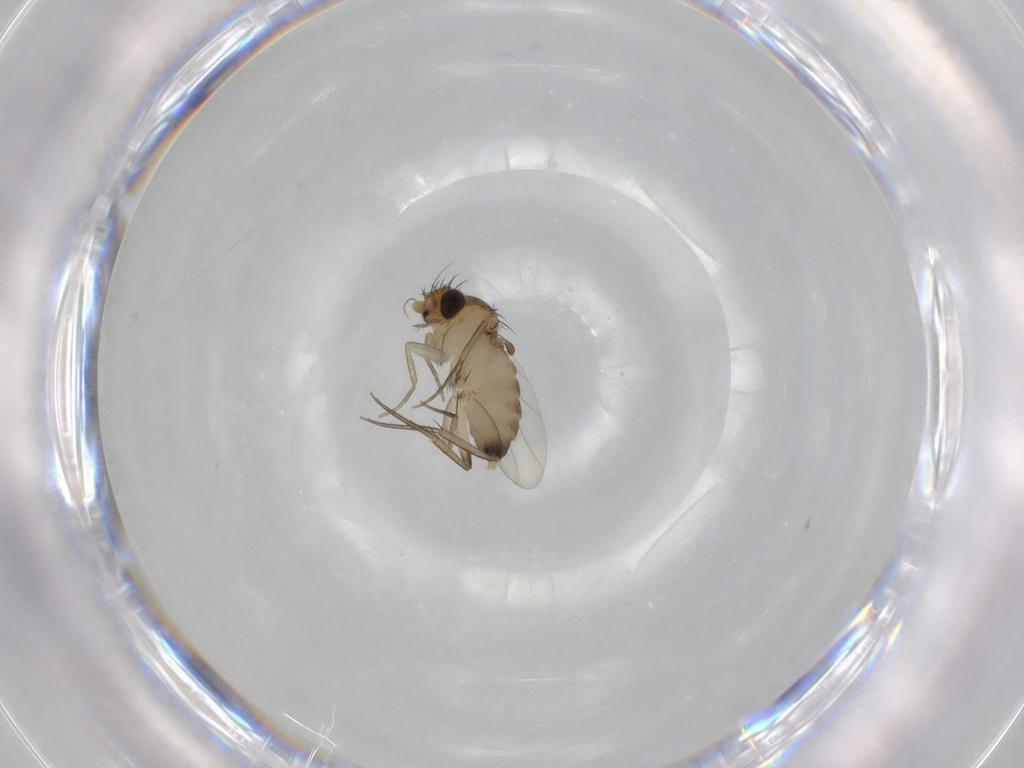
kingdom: Animalia
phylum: Arthropoda
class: Insecta
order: Diptera
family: Phoridae
